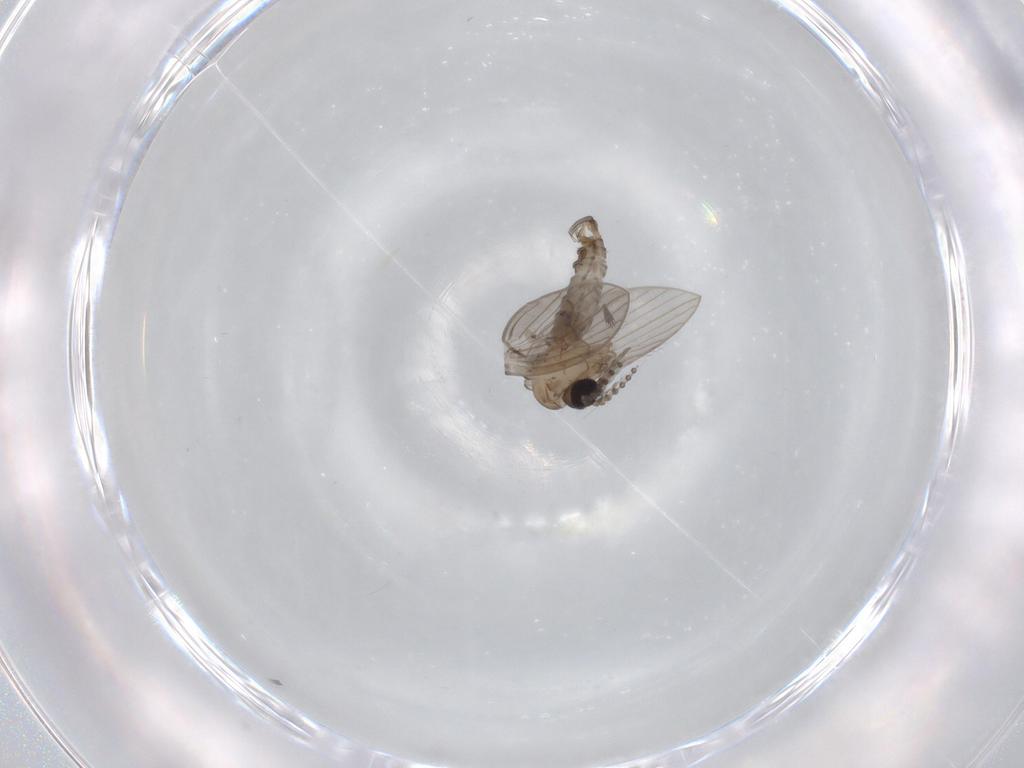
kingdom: Animalia
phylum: Arthropoda
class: Insecta
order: Diptera
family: Psychodidae
